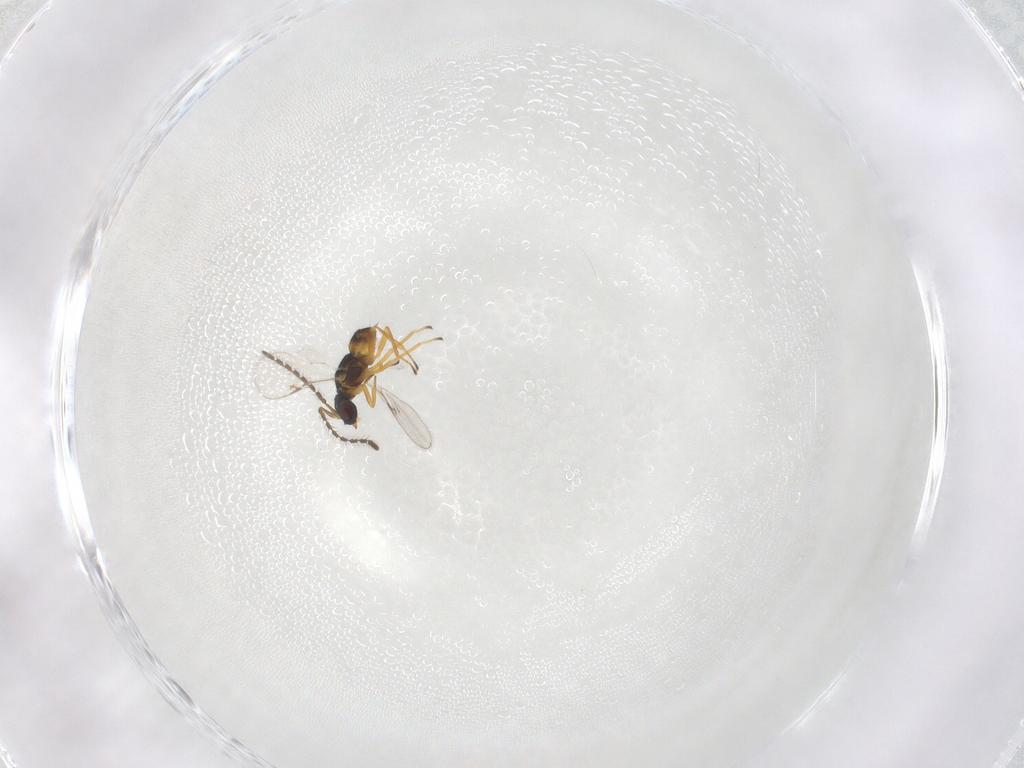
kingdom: Animalia
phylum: Arthropoda
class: Insecta
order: Hymenoptera
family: Encyrtidae
